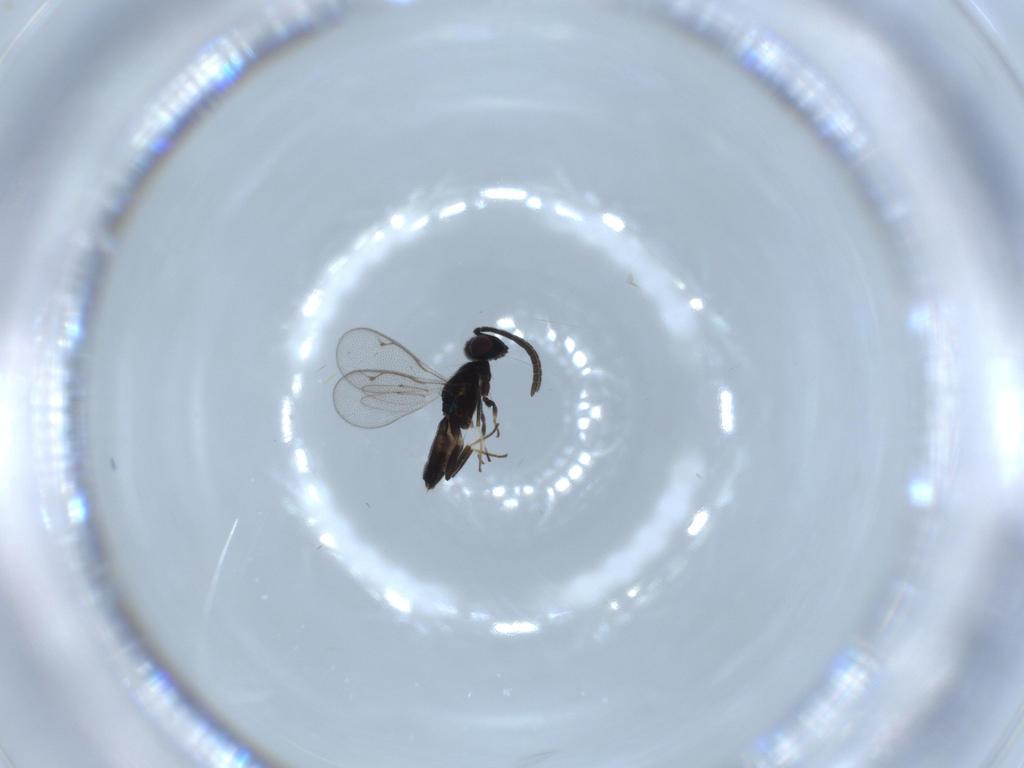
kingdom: Animalia
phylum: Arthropoda
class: Insecta
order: Hymenoptera
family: Eupelmidae
